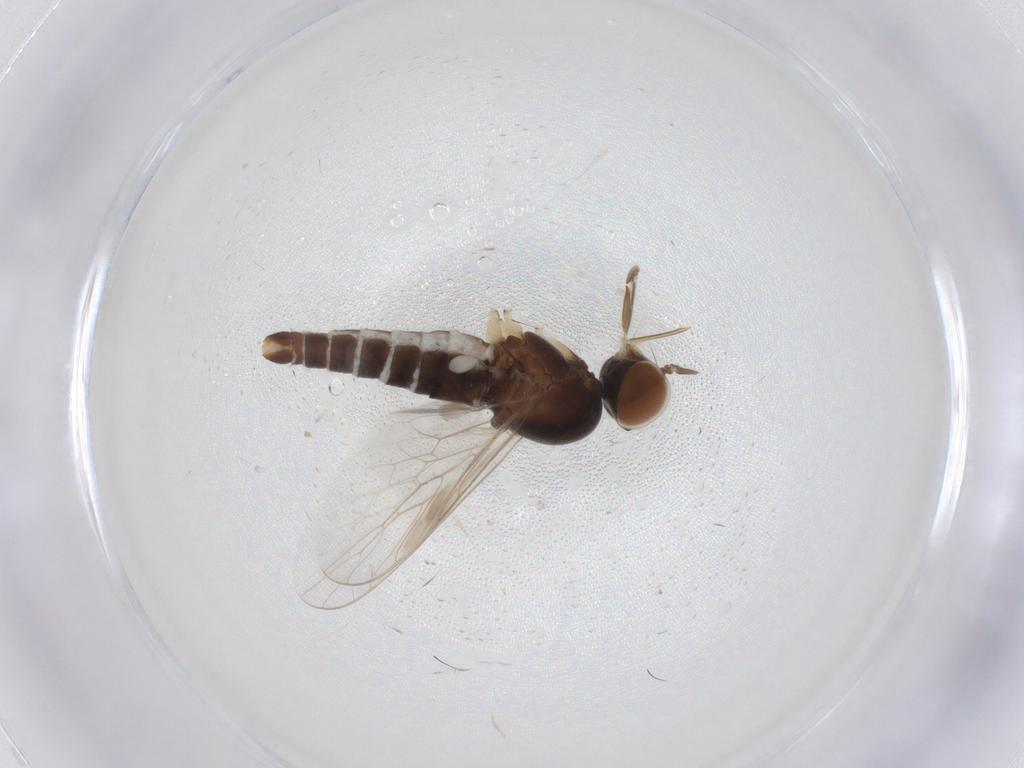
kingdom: Animalia
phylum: Arthropoda
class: Insecta
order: Diptera
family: Scenopinidae
